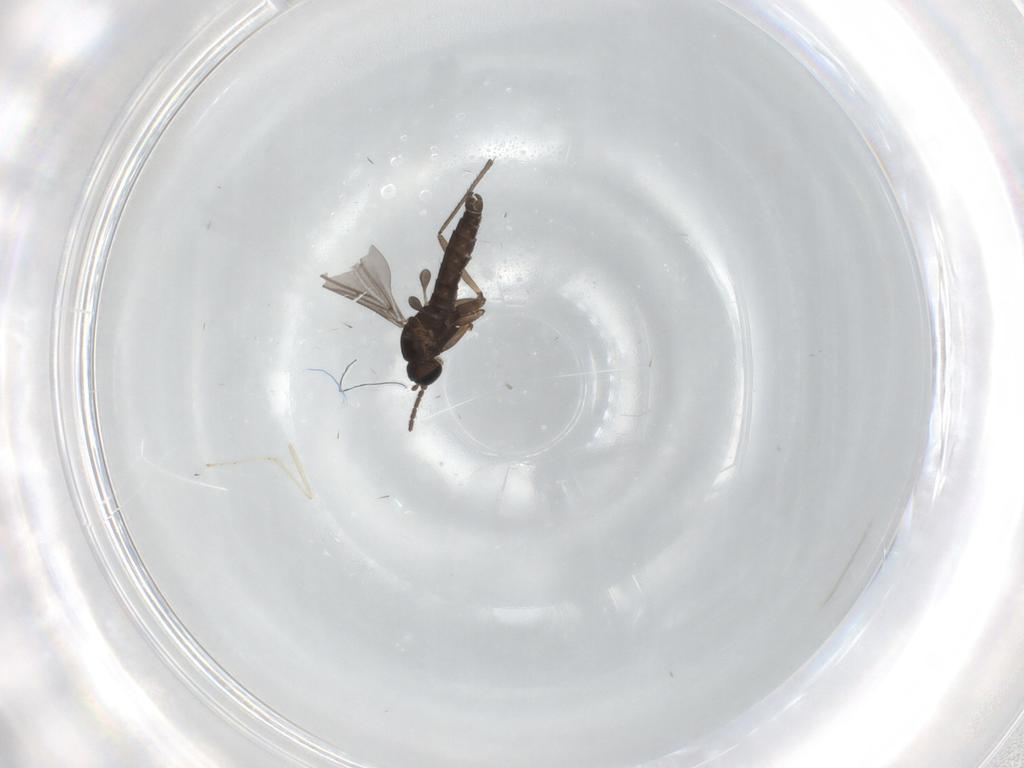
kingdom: Animalia
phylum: Arthropoda
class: Insecta
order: Diptera
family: Cecidomyiidae
